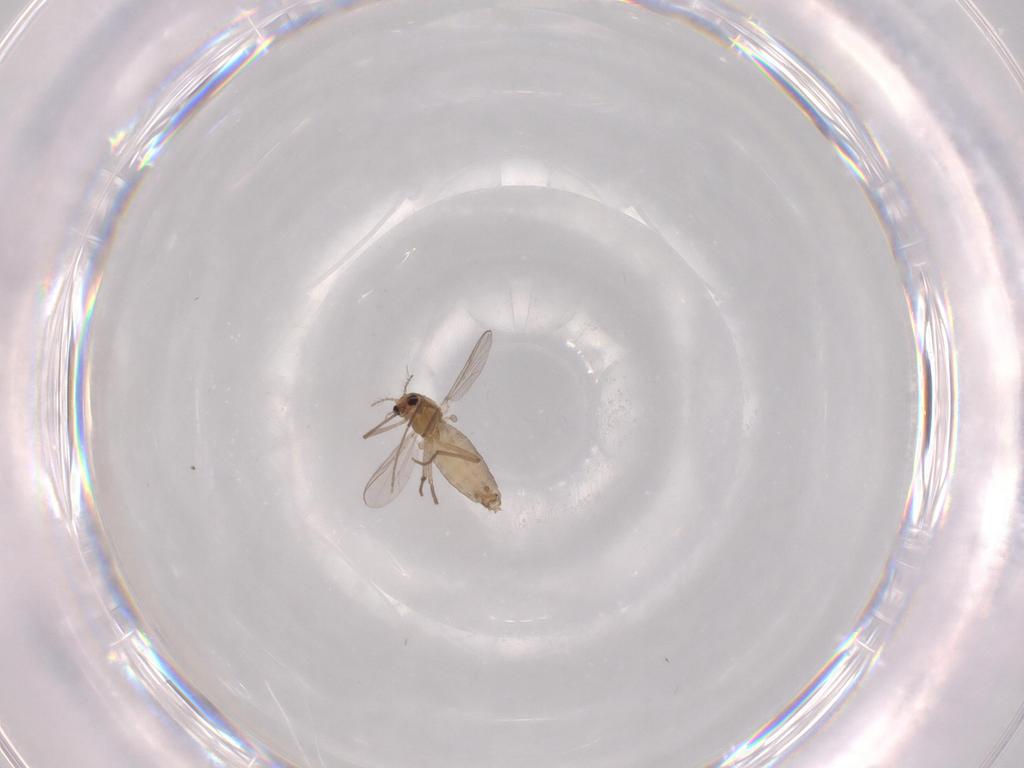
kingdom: Animalia
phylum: Arthropoda
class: Insecta
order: Diptera
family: Chironomidae
